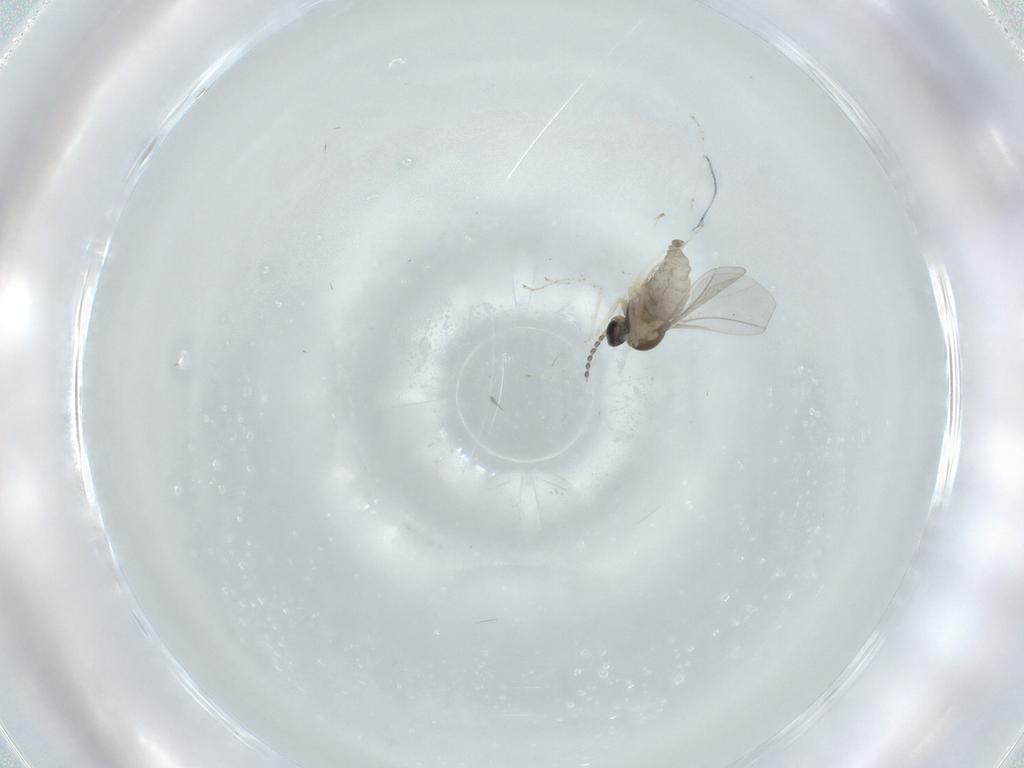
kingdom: Animalia
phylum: Arthropoda
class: Insecta
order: Diptera
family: Cecidomyiidae
